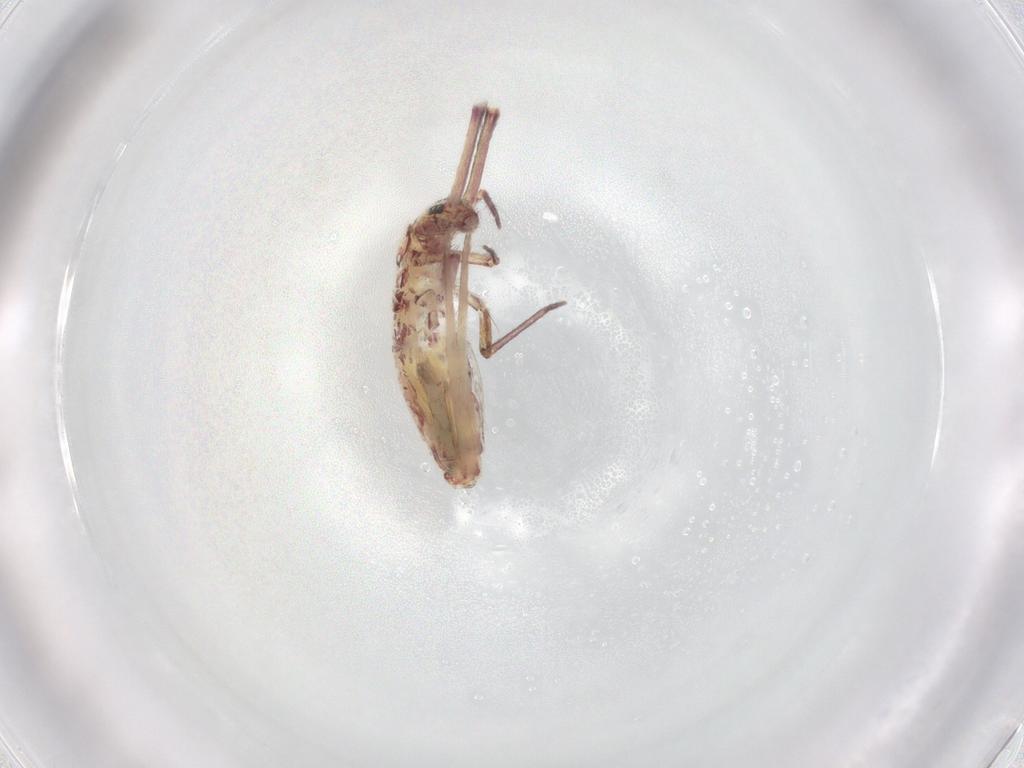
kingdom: Animalia
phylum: Arthropoda
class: Collembola
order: Entomobryomorpha
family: Entomobryidae
